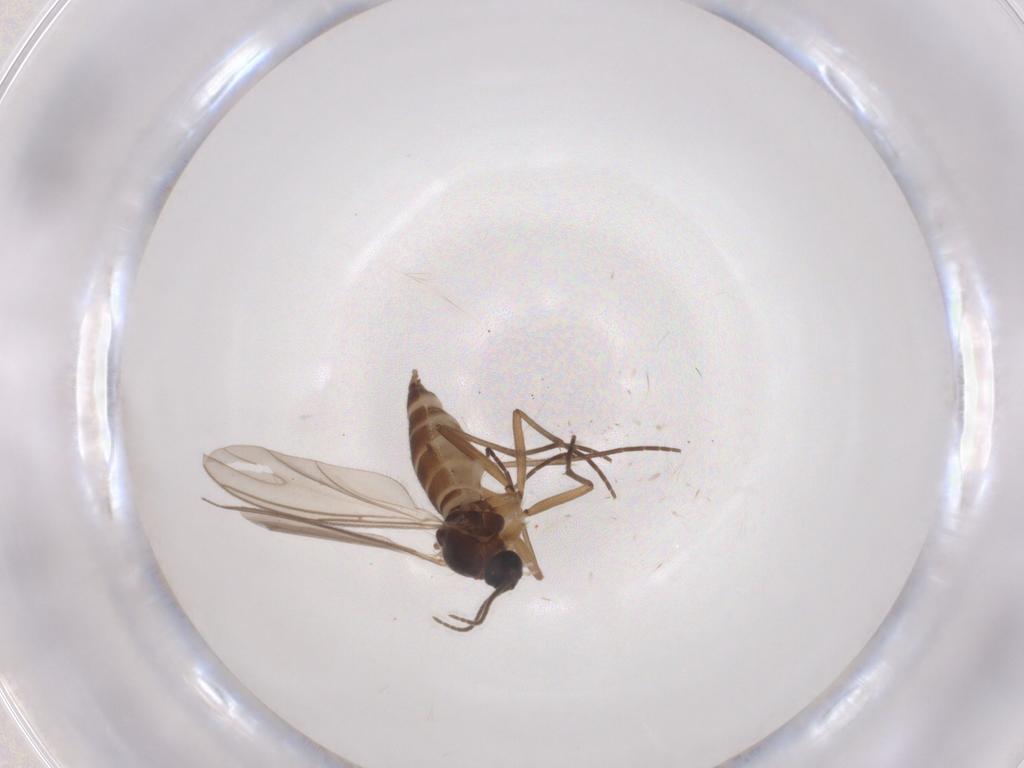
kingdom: Animalia
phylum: Arthropoda
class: Insecta
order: Diptera
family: Sciaridae
